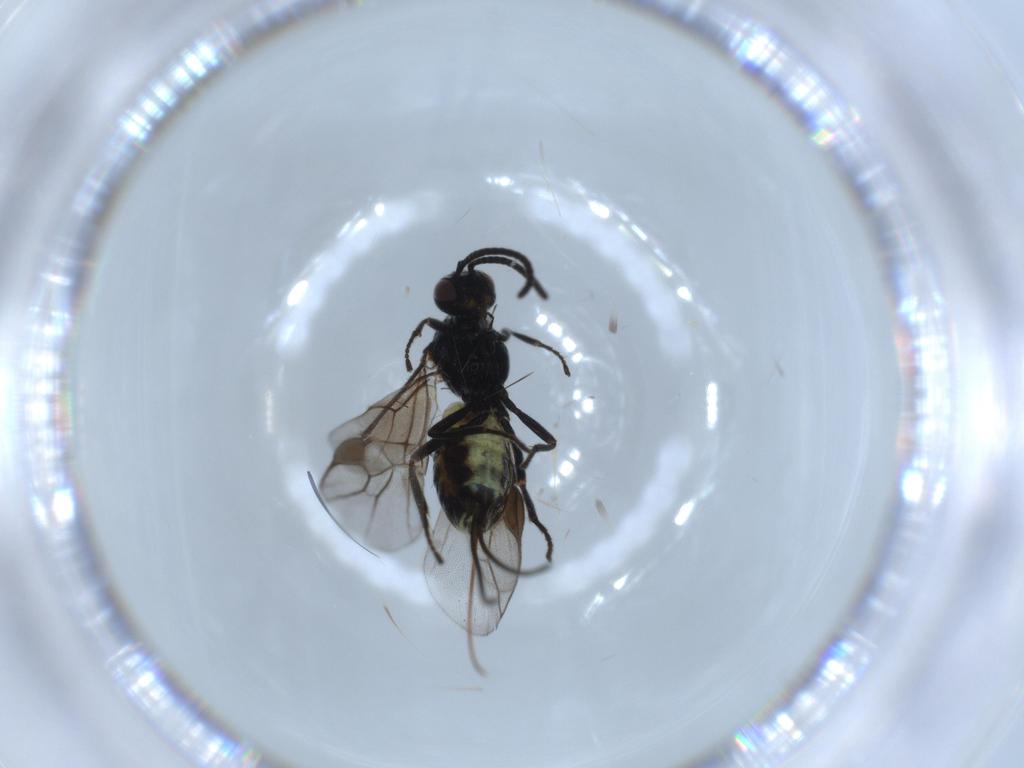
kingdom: Animalia
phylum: Arthropoda
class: Insecta
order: Hymenoptera
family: Braconidae
